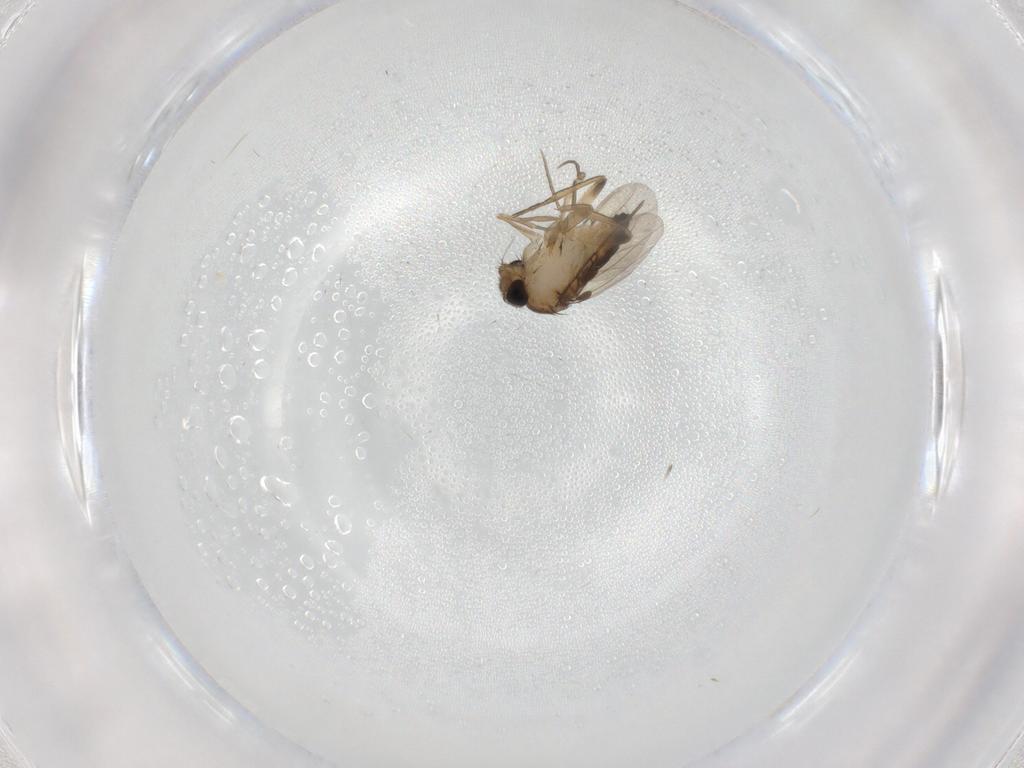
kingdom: Animalia
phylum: Arthropoda
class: Insecta
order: Diptera
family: Phoridae
